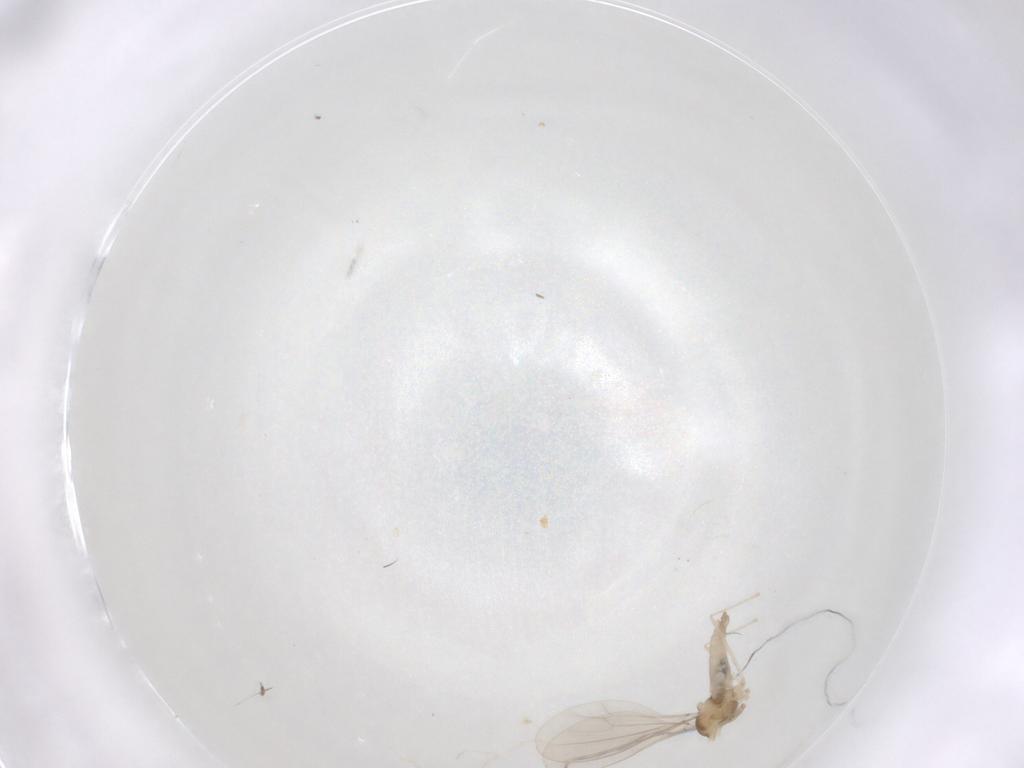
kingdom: Animalia
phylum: Arthropoda
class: Insecta
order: Diptera
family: Cecidomyiidae
